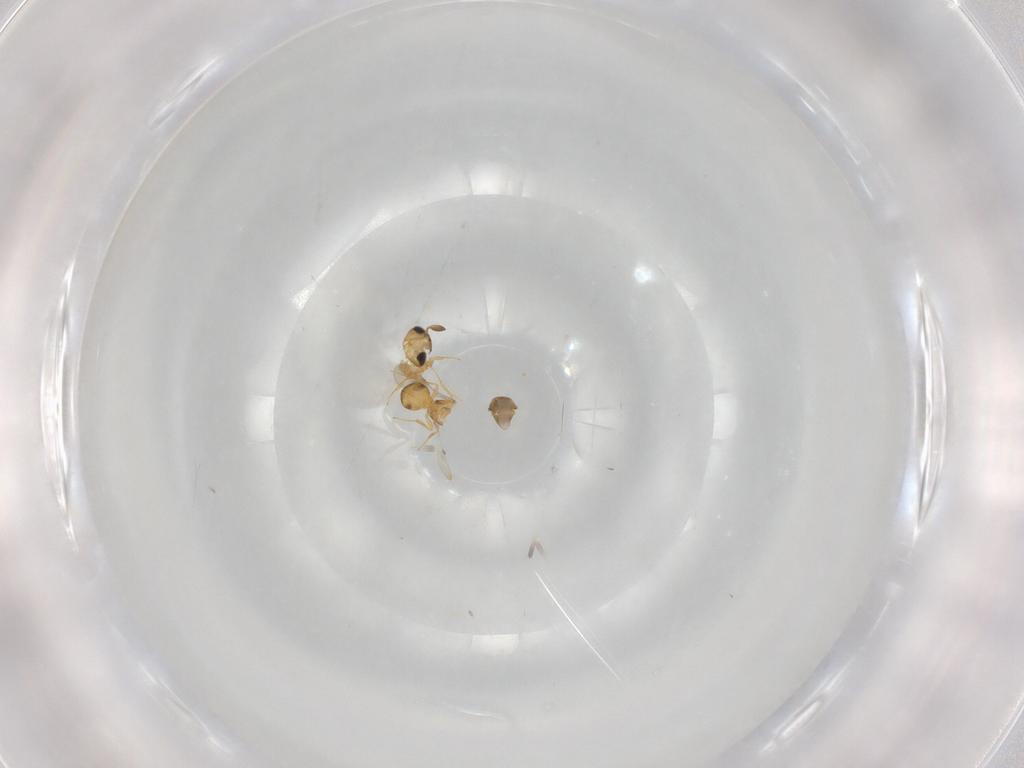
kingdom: Animalia
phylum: Arthropoda
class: Insecta
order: Hymenoptera
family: Scelionidae
